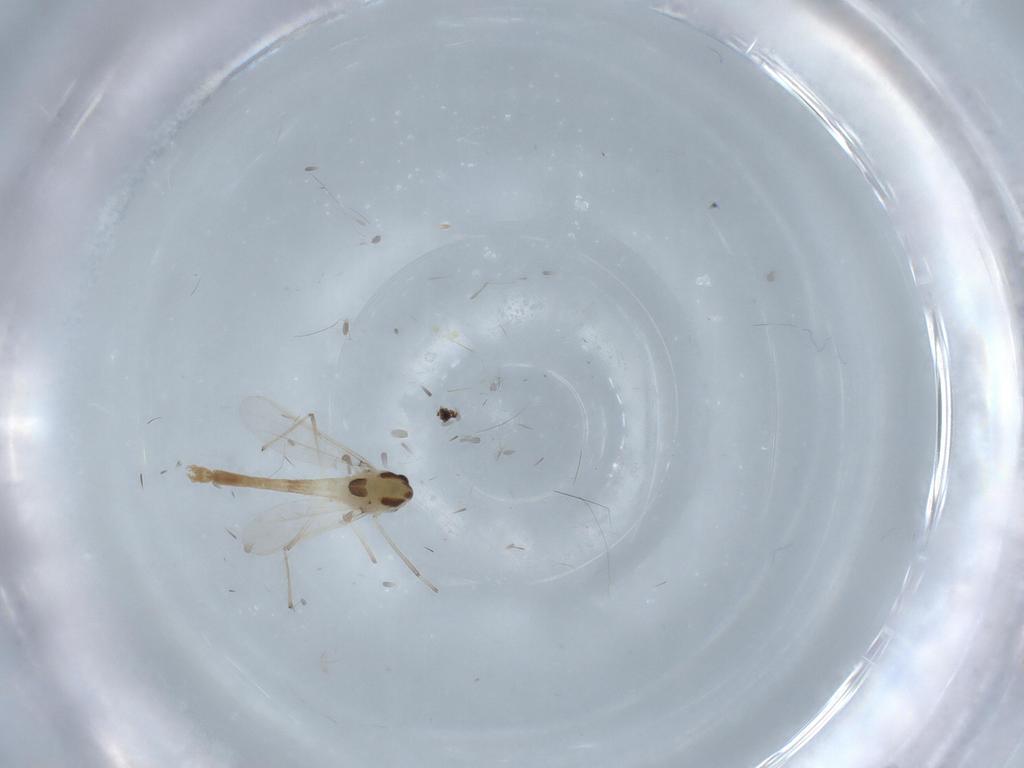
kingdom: Animalia
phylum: Arthropoda
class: Insecta
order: Diptera
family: Chironomidae
